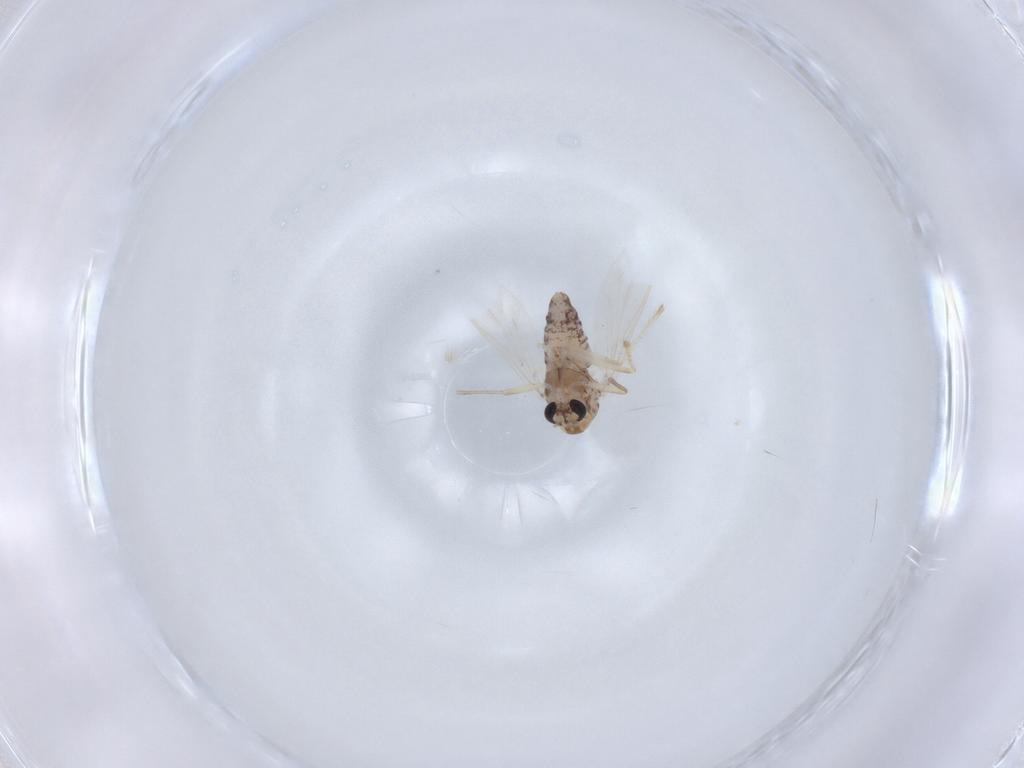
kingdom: Animalia
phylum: Arthropoda
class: Insecta
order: Diptera
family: Chironomidae
